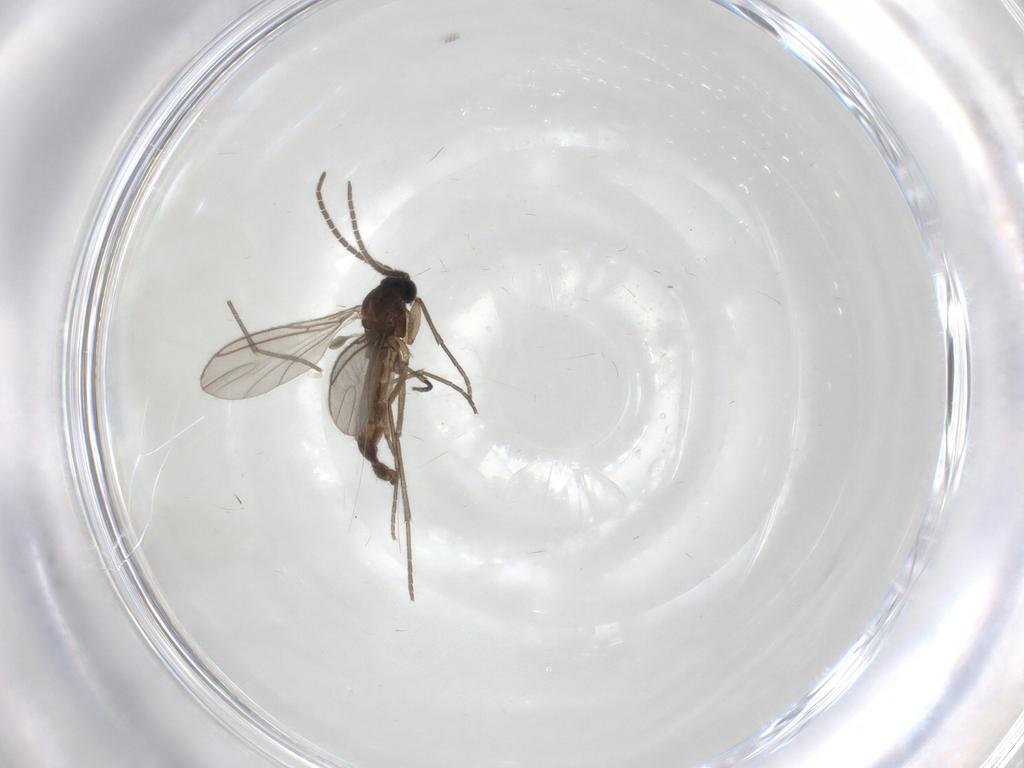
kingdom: Animalia
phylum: Arthropoda
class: Insecta
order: Diptera
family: Sciaridae
